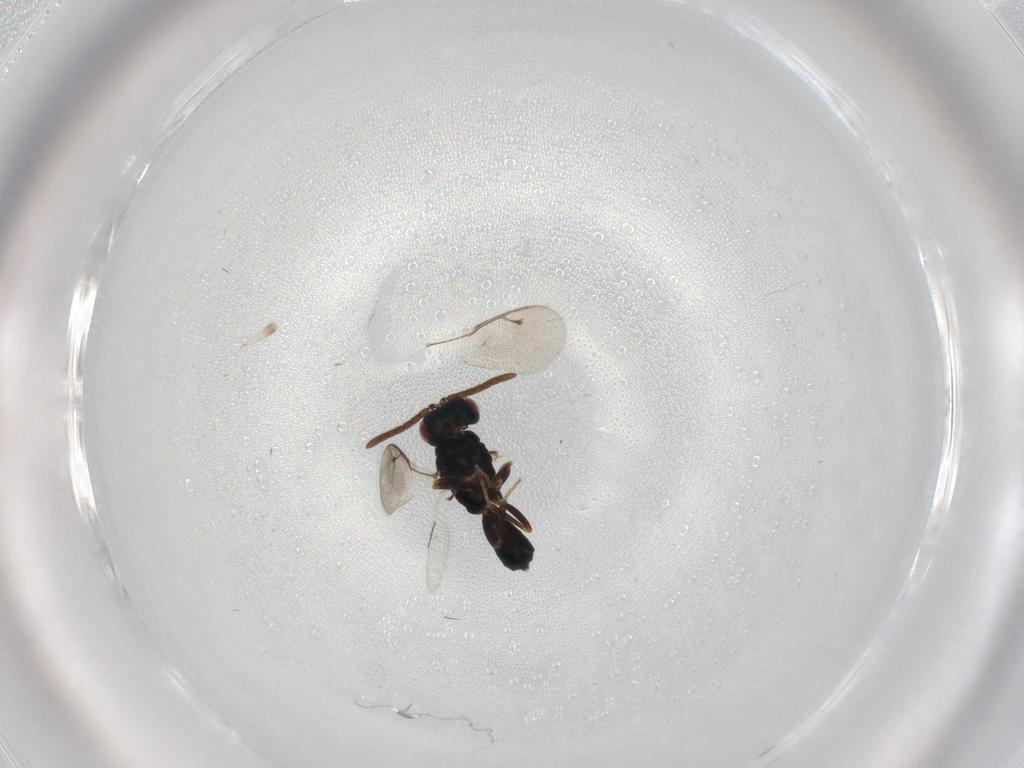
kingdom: Animalia
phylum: Arthropoda
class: Insecta
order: Hymenoptera
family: Pteromalidae
